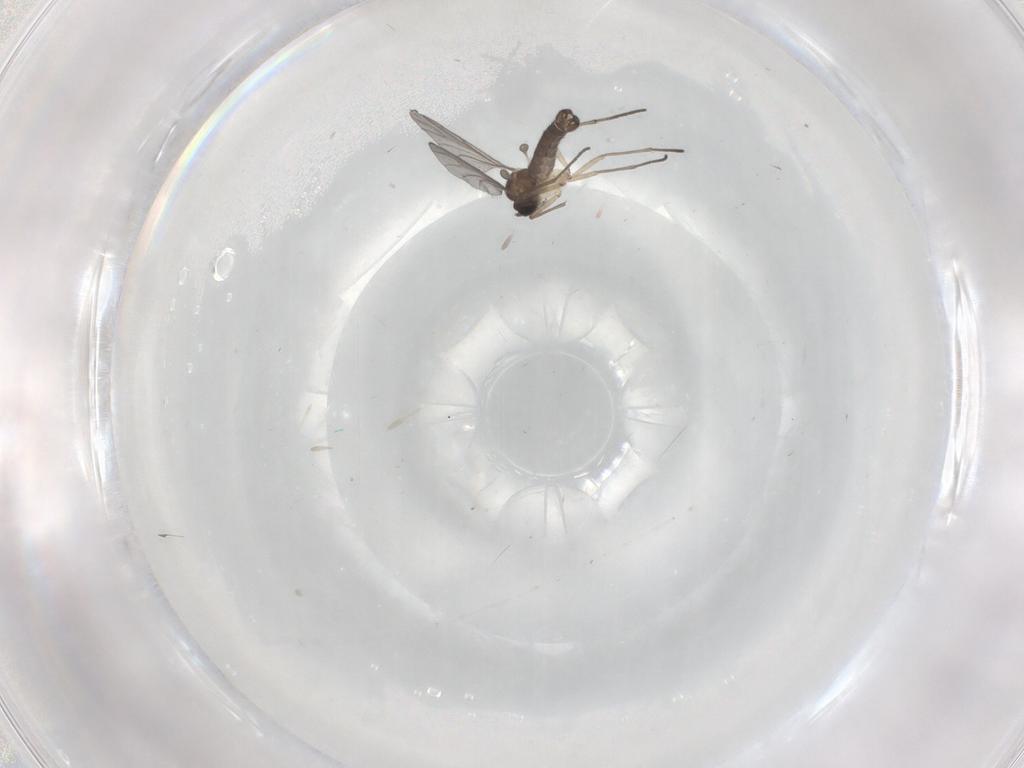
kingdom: Animalia
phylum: Arthropoda
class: Insecta
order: Diptera
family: Sciaridae
